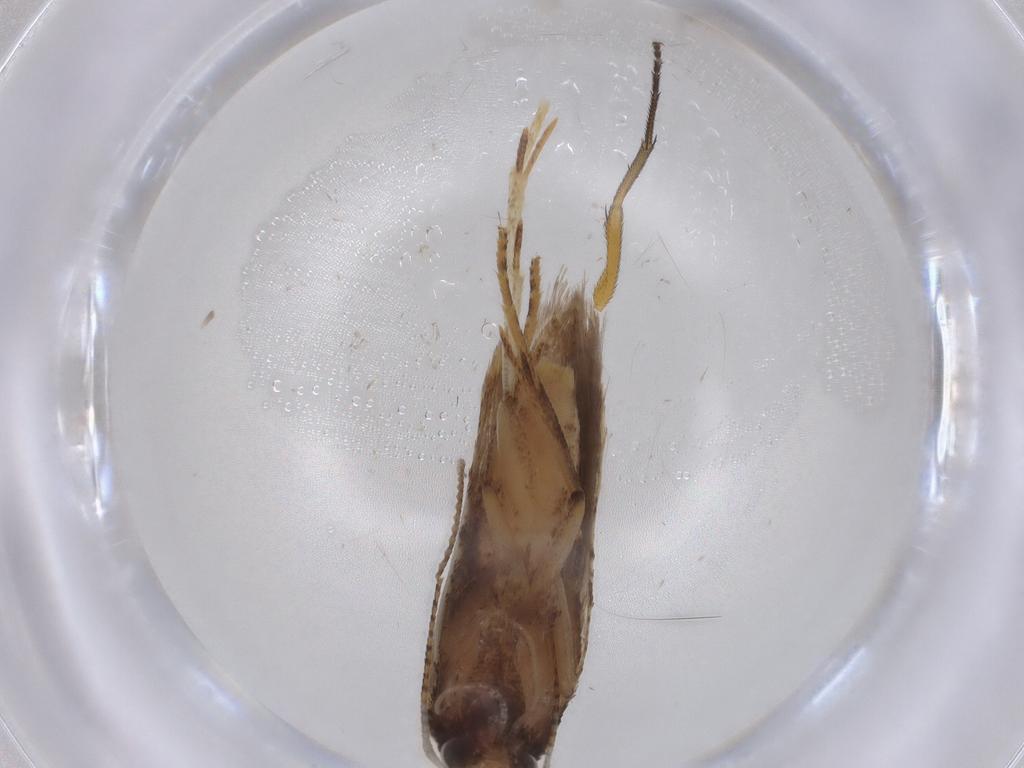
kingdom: Animalia
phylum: Arthropoda
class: Insecta
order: Lepidoptera
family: Gelechiidae
